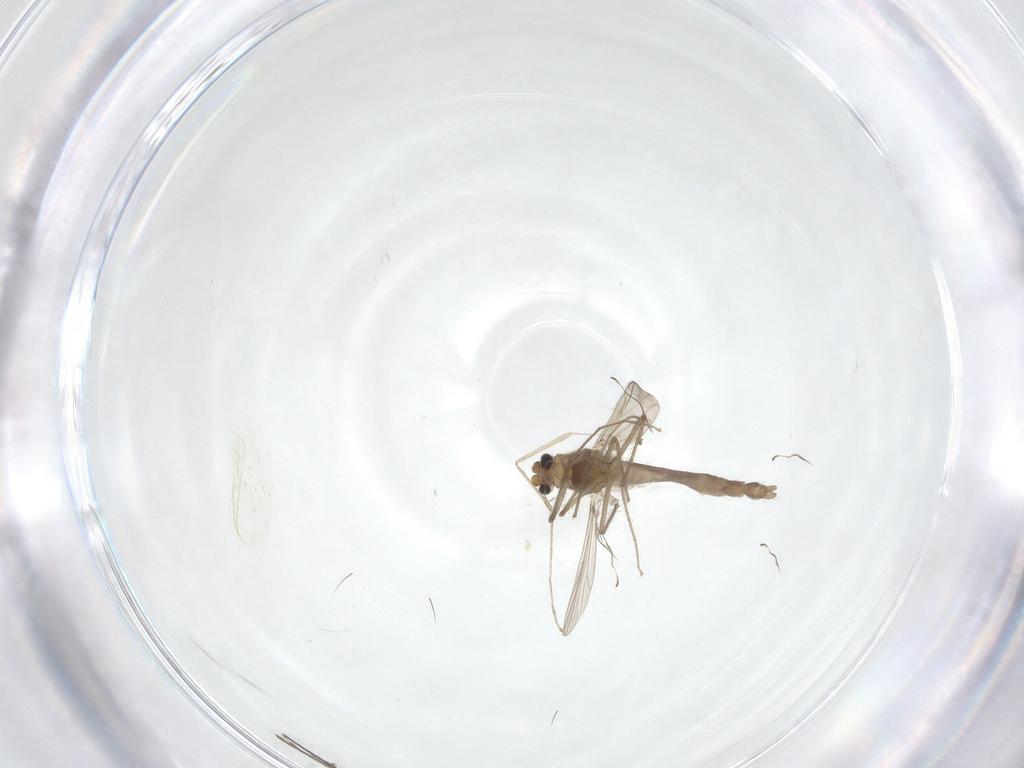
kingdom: Animalia
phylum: Arthropoda
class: Insecta
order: Diptera
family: Chironomidae
